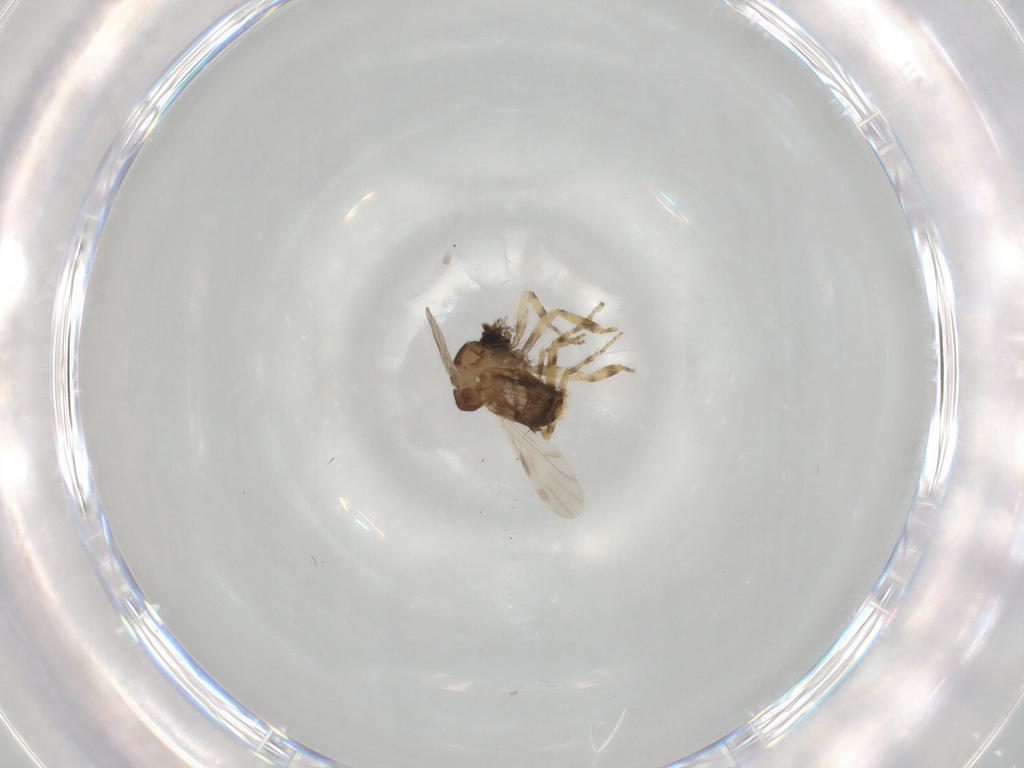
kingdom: Animalia
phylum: Arthropoda
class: Insecta
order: Diptera
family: Ceratopogonidae
